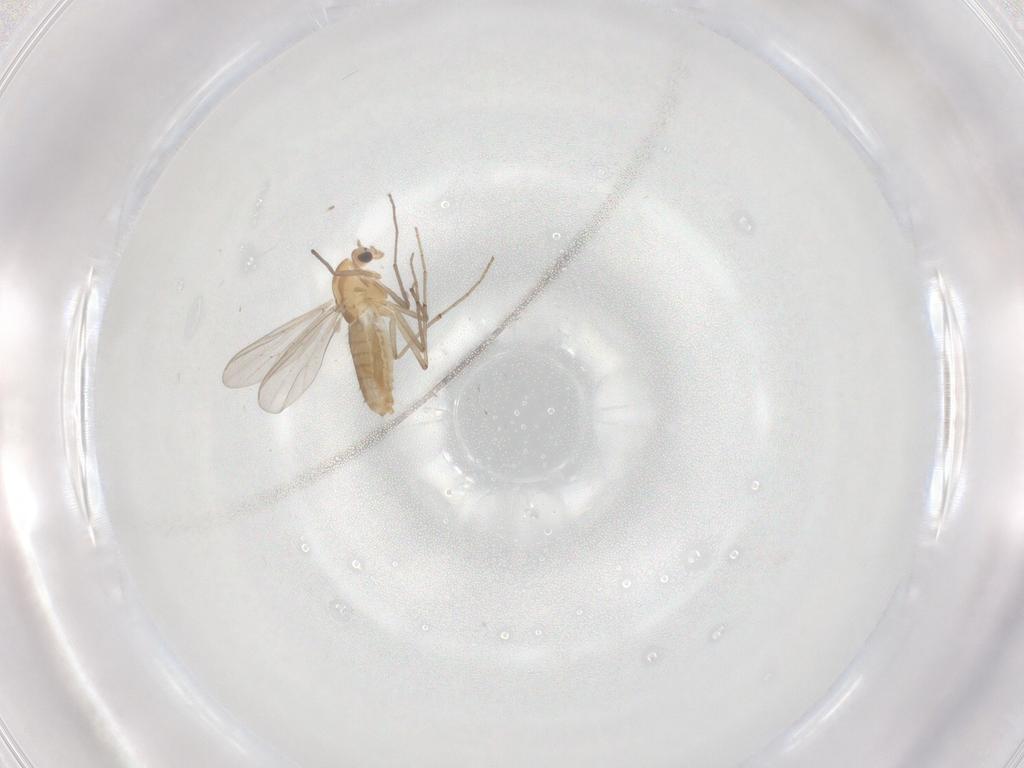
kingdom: Animalia
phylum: Arthropoda
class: Insecta
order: Diptera
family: Chironomidae
